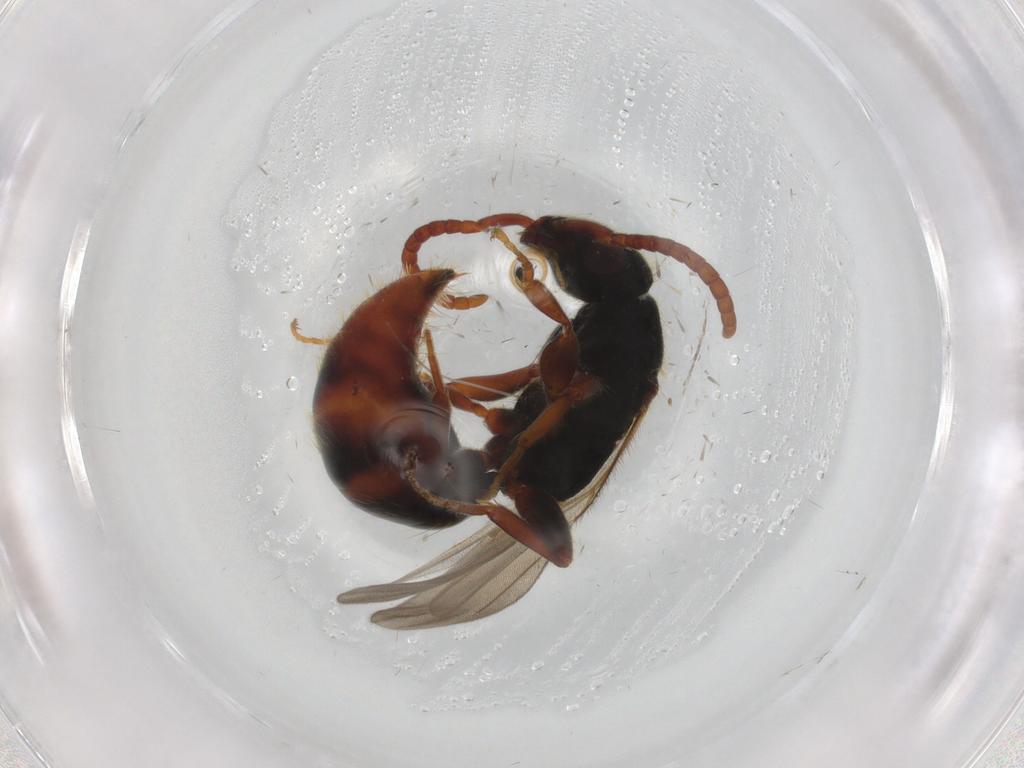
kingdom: Animalia
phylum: Arthropoda
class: Insecta
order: Hymenoptera
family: Bethylidae
